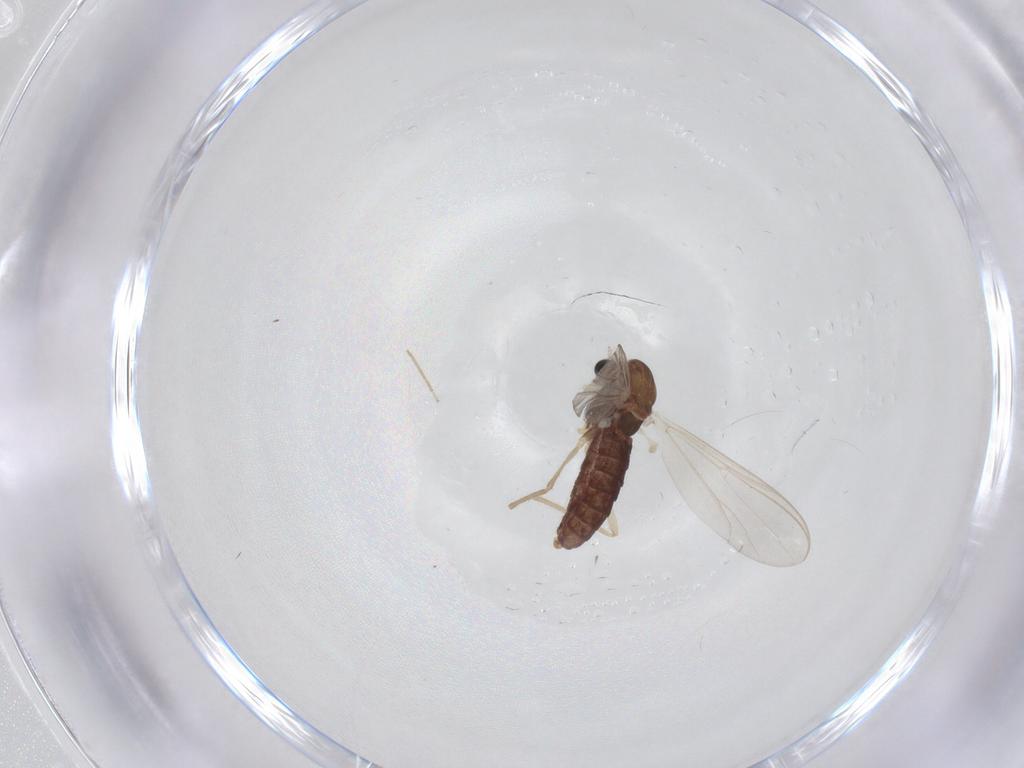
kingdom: Animalia
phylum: Arthropoda
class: Insecta
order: Diptera
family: Chironomidae
